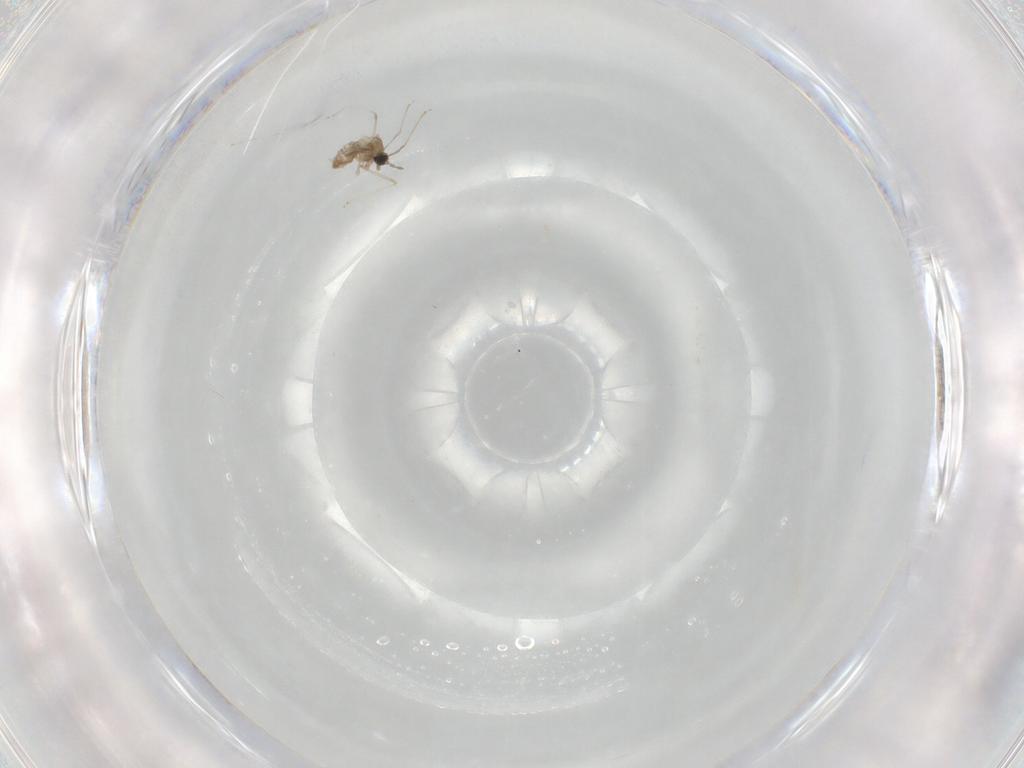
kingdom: Animalia
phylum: Arthropoda
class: Insecta
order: Diptera
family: Cecidomyiidae
